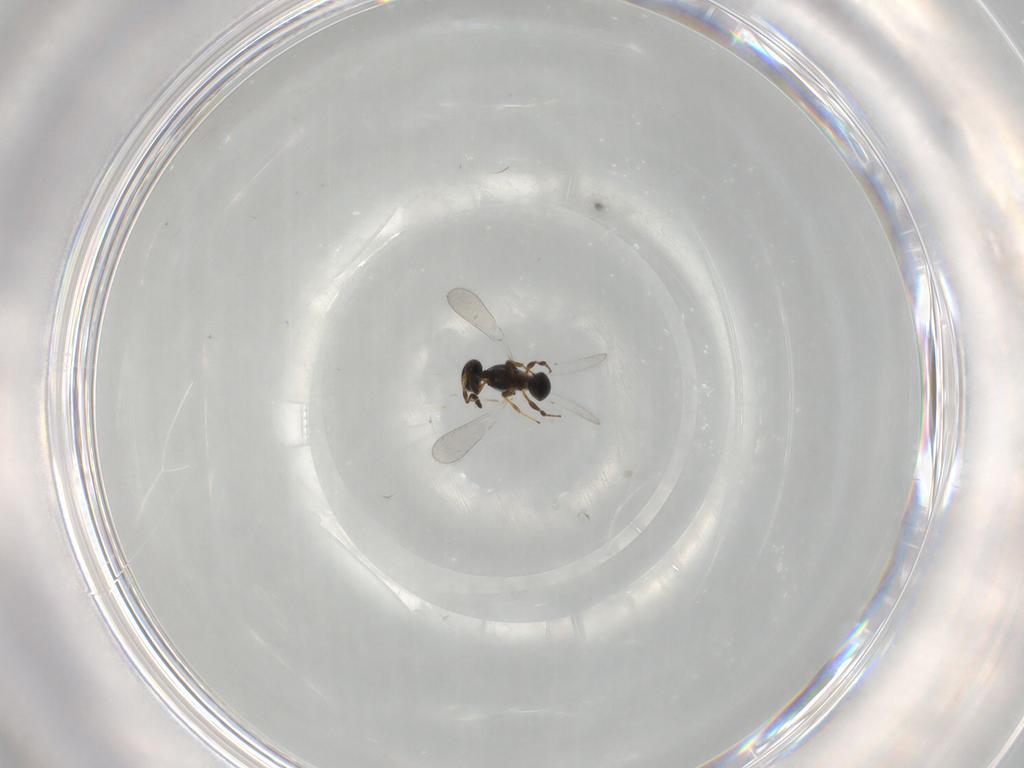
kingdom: Animalia
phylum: Arthropoda
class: Insecta
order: Hymenoptera
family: Platygastridae
